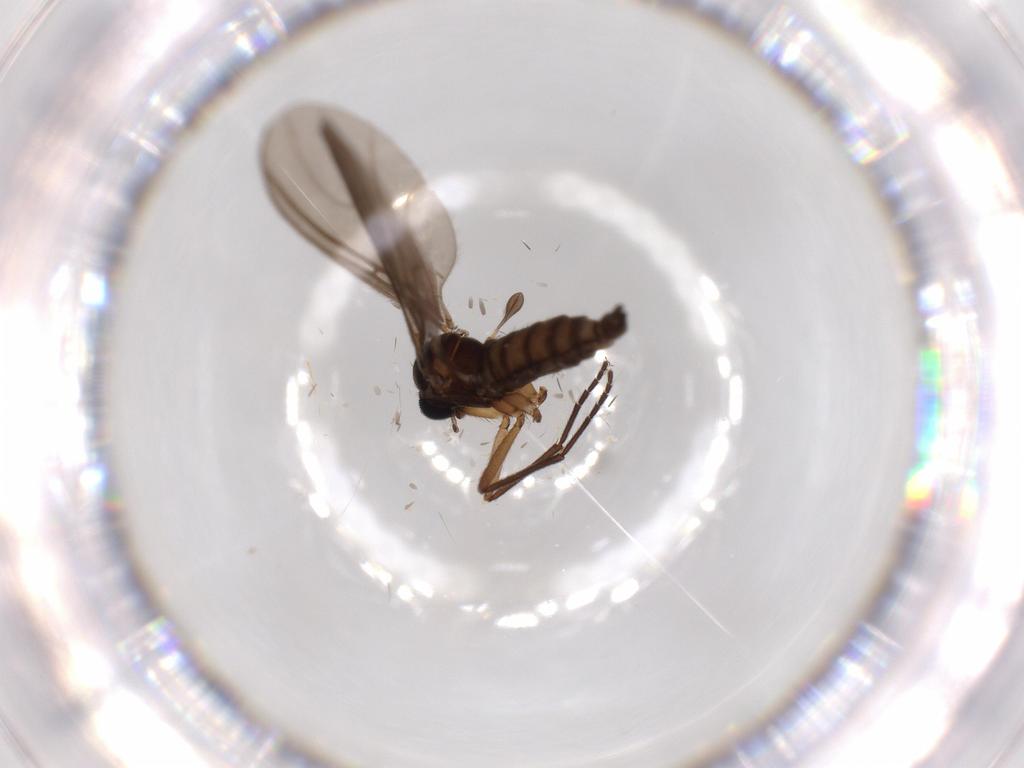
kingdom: Animalia
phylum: Arthropoda
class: Insecta
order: Diptera
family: Sciaridae
